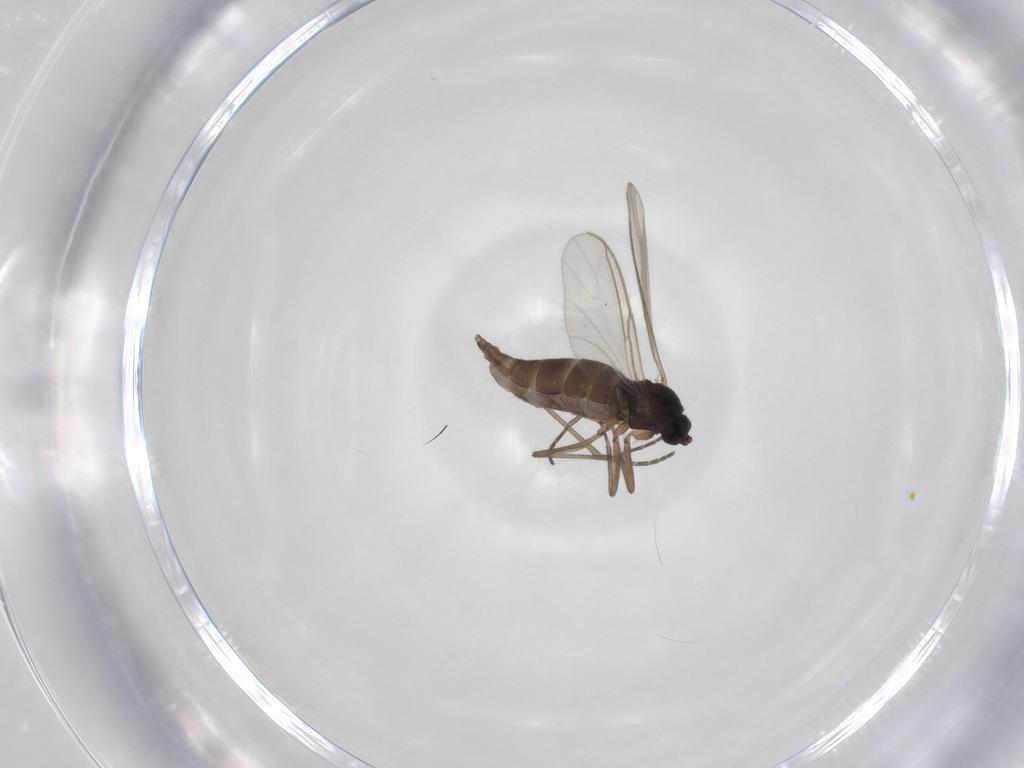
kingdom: Animalia
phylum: Arthropoda
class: Insecta
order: Diptera
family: Sciaridae
